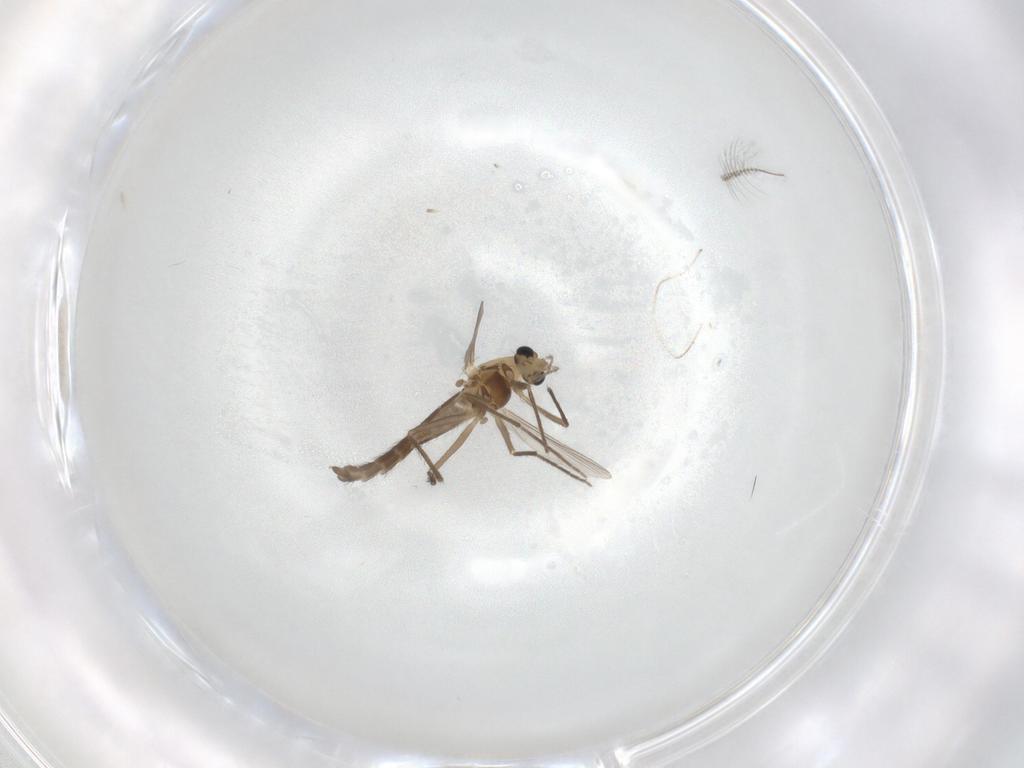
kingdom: Animalia
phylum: Arthropoda
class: Insecta
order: Diptera
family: Chironomidae
